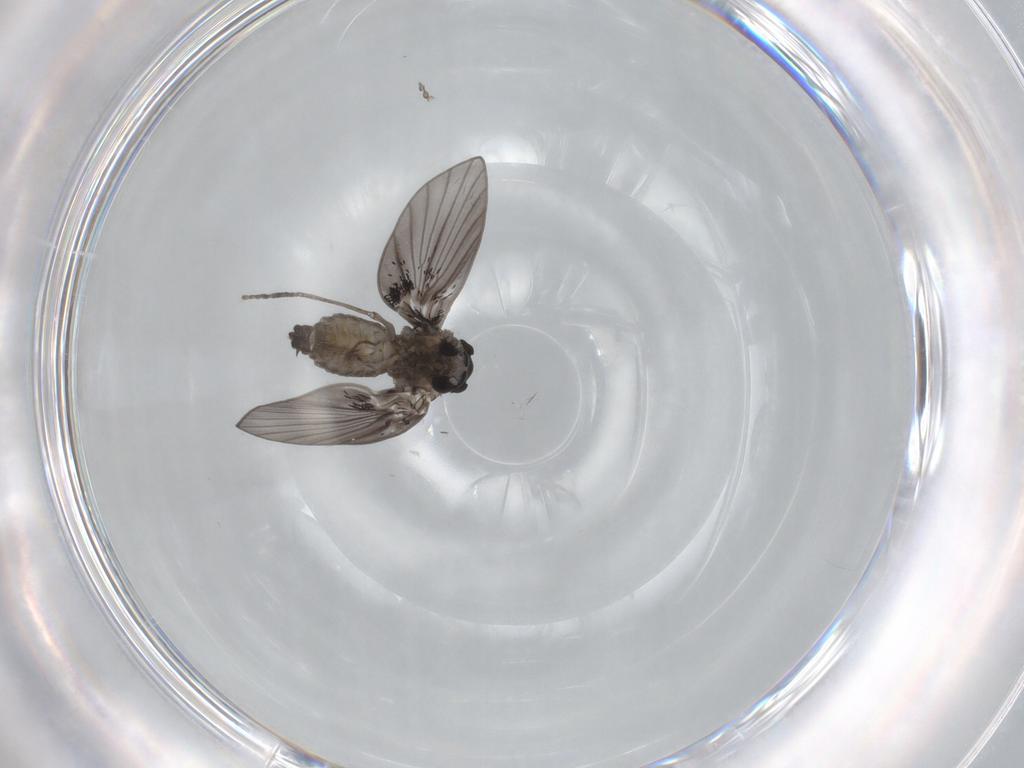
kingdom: Animalia
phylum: Arthropoda
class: Insecta
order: Diptera
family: Psychodidae
